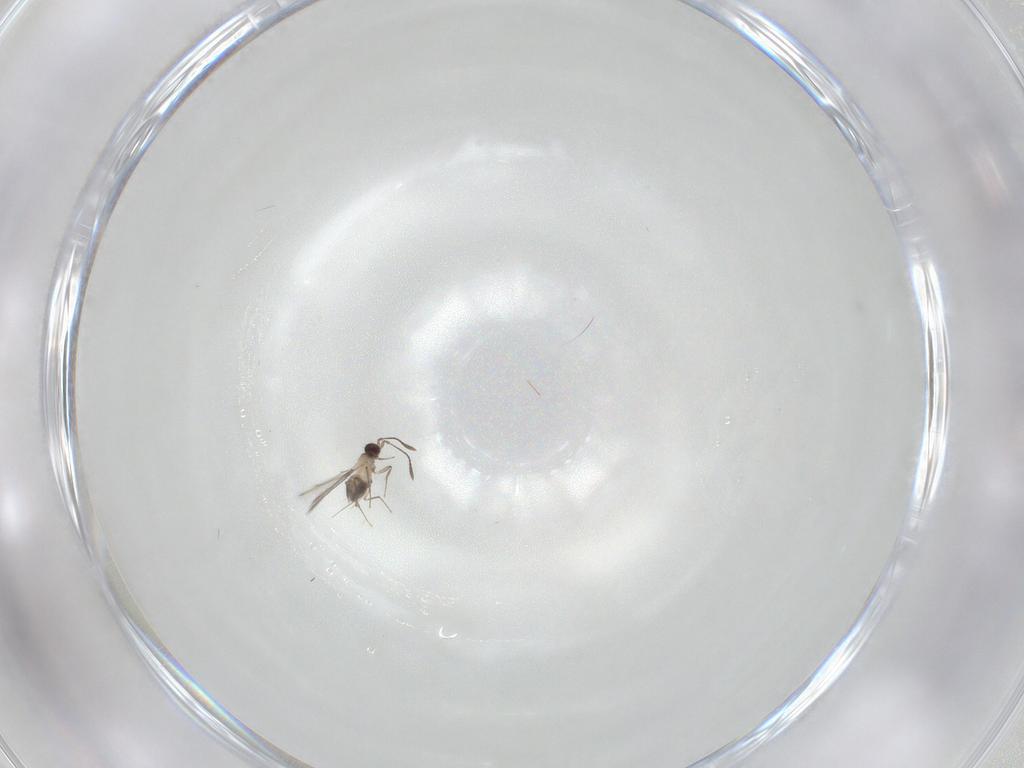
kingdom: Animalia
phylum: Arthropoda
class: Insecta
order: Hymenoptera
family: Mymaridae
